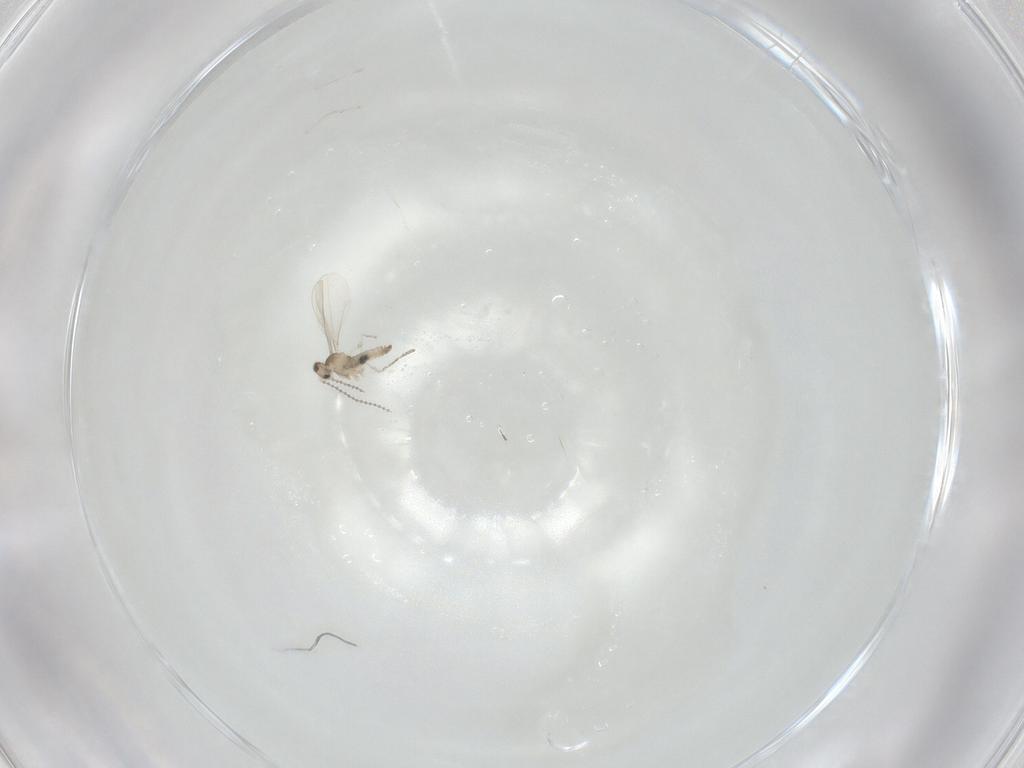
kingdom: Animalia
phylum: Arthropoda
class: Insecta
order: Diptera
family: Cecidomyiidae
